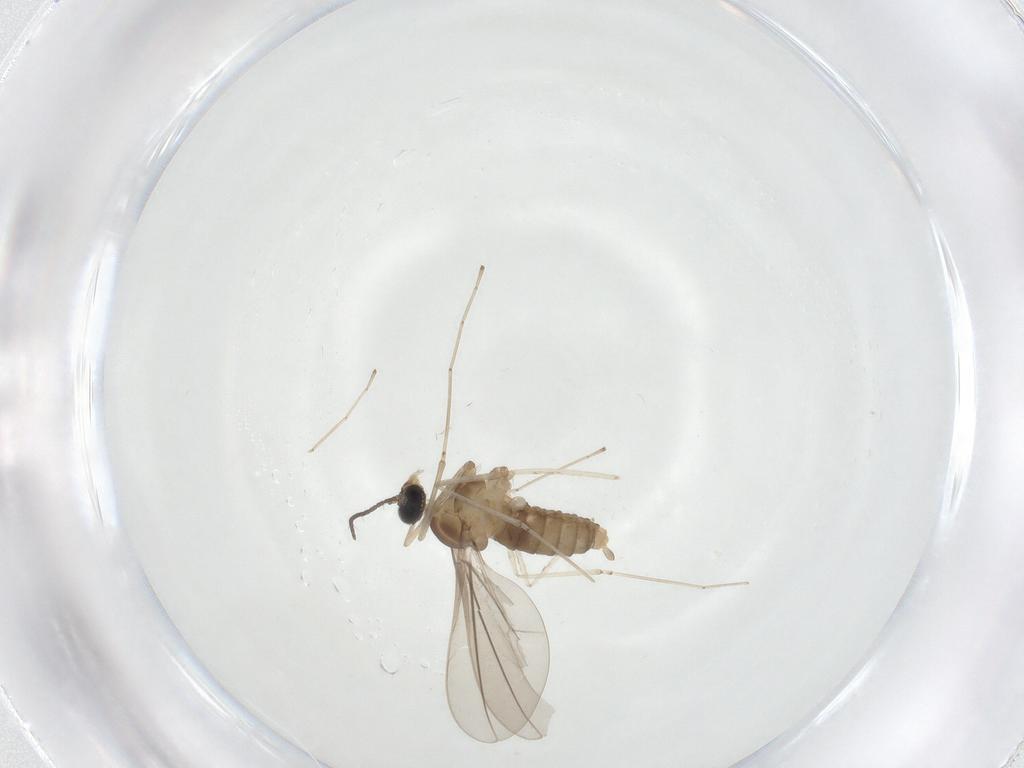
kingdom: Animalia
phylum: Arthropoda
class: Insecta
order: Diptera
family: Cecidomyiidae
